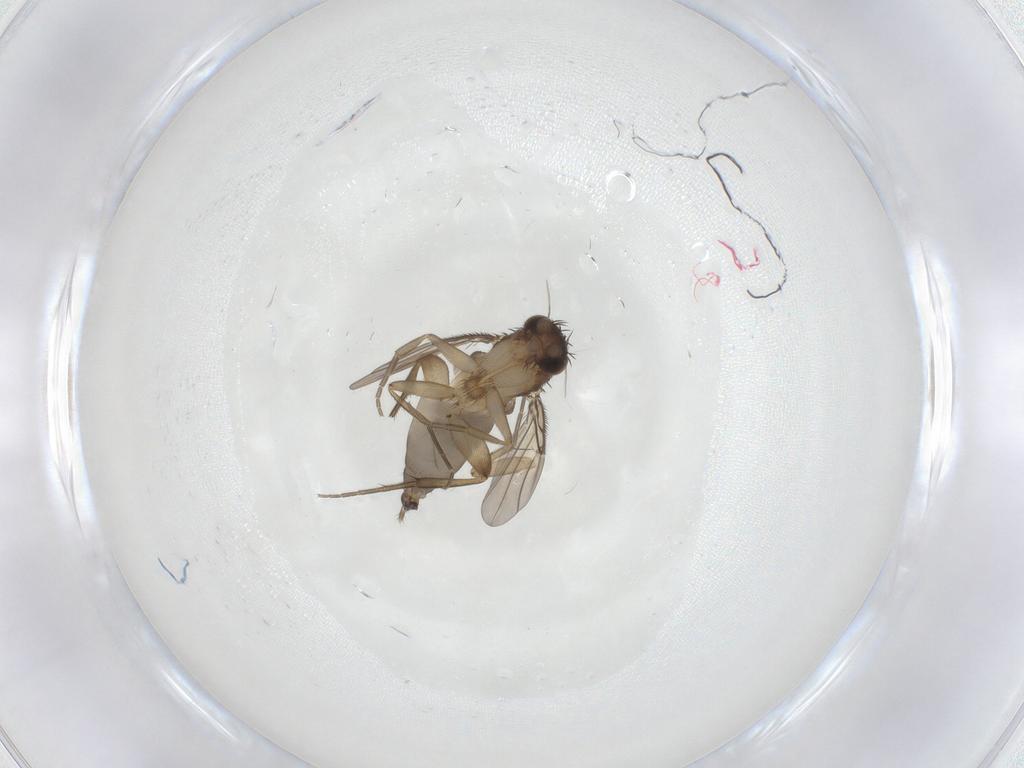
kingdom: Animalia
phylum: Arthropoda
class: Insecta
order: Diptera
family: Phoridae
